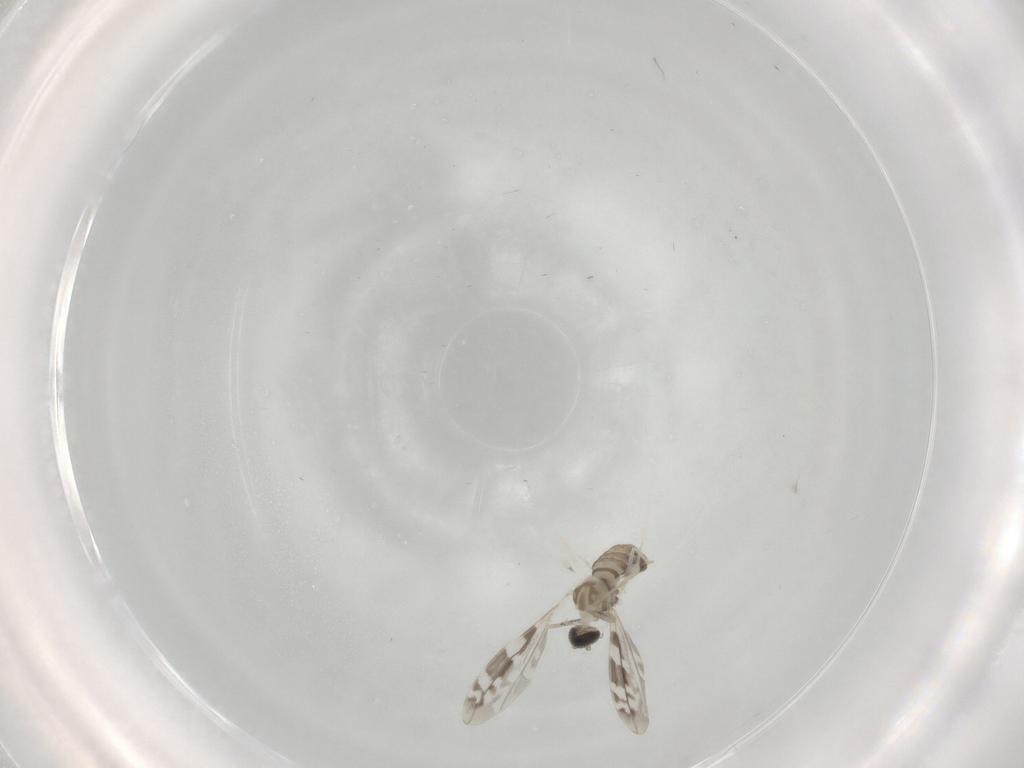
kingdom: Animalia
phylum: Arthropoda
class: Insecta
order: Diptera
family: Cecidomyiidae
